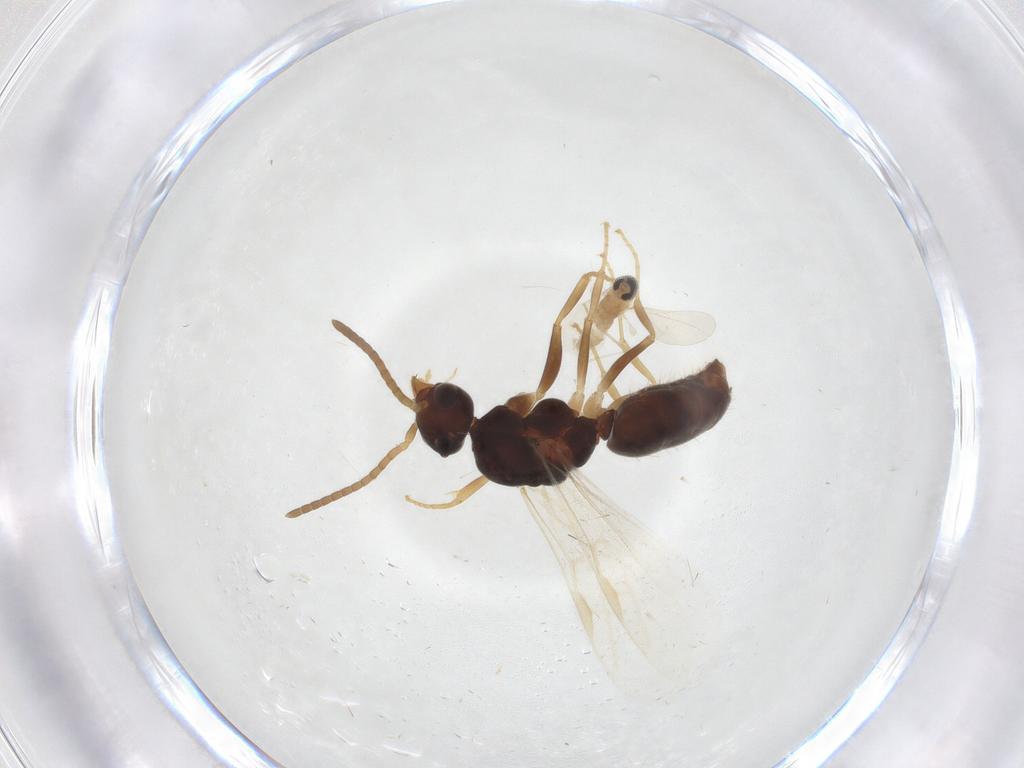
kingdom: Animalia
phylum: Arthropoda
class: Insecta
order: Hymenoptera
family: Formicidae
